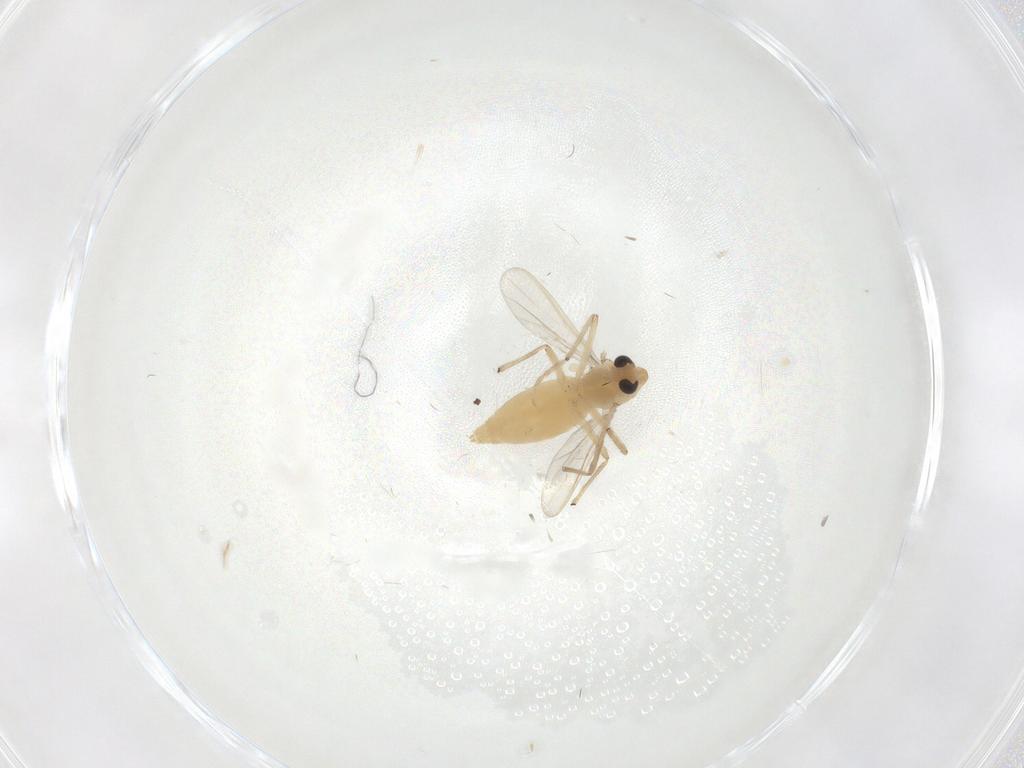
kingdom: Animalia
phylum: Arthropoda
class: Insecta
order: Diptera
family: Chironomidae
